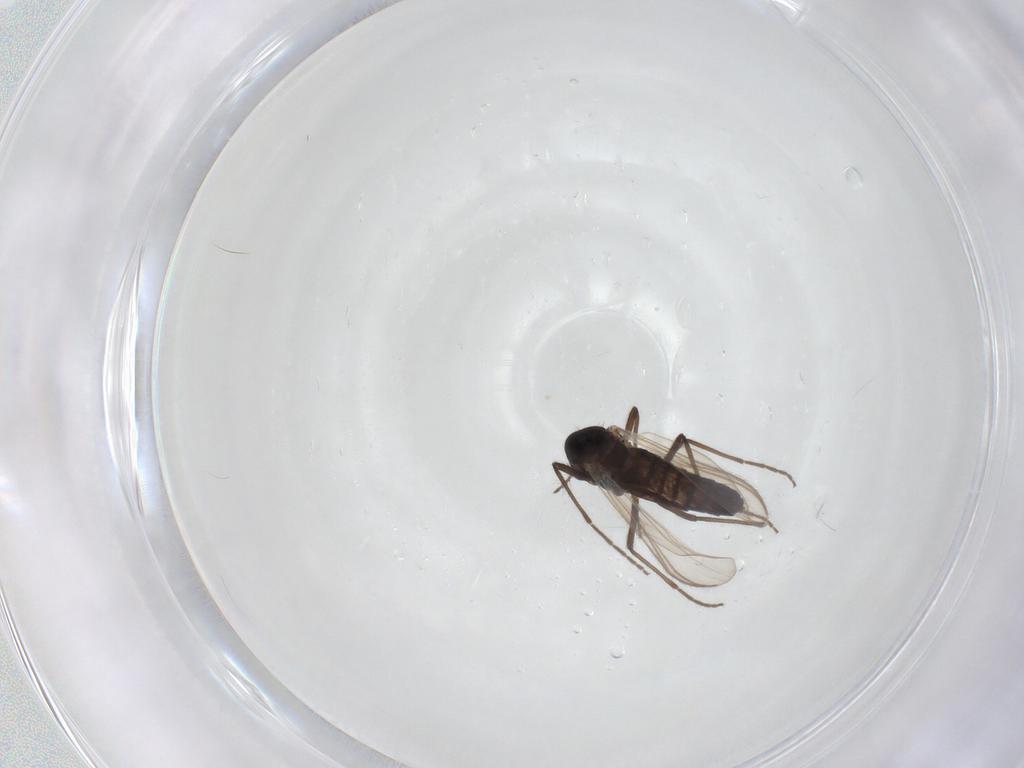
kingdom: Animalia
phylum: Arthropoda
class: Insecta
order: Diptera
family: Chironomidae
